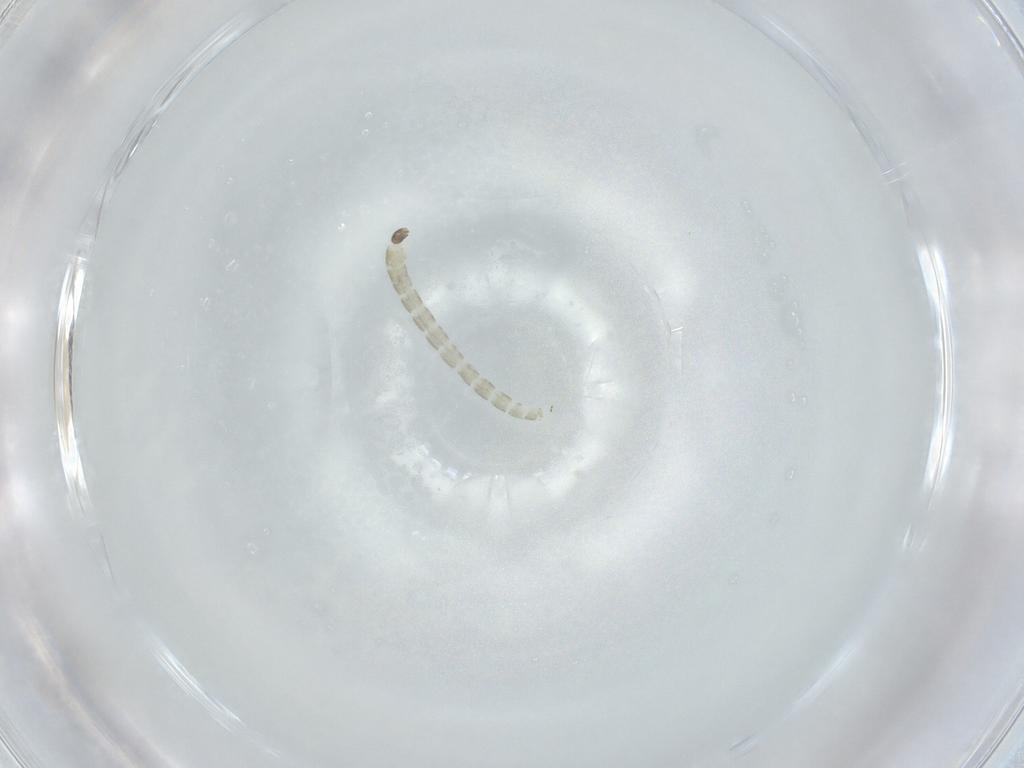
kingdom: Animalia
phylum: Arthropoda
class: Insecta
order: Diptera
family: Chironomidae
